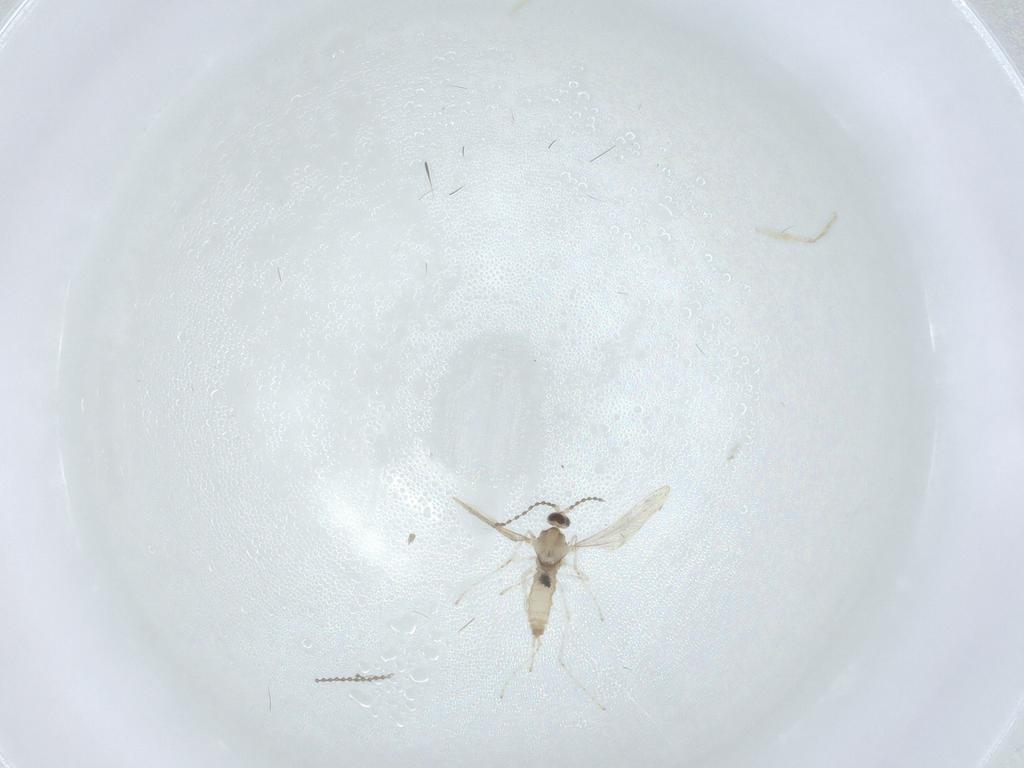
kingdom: Animalia
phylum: Arthropoda
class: Insecta
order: Diptera
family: Cecidomyiidae
